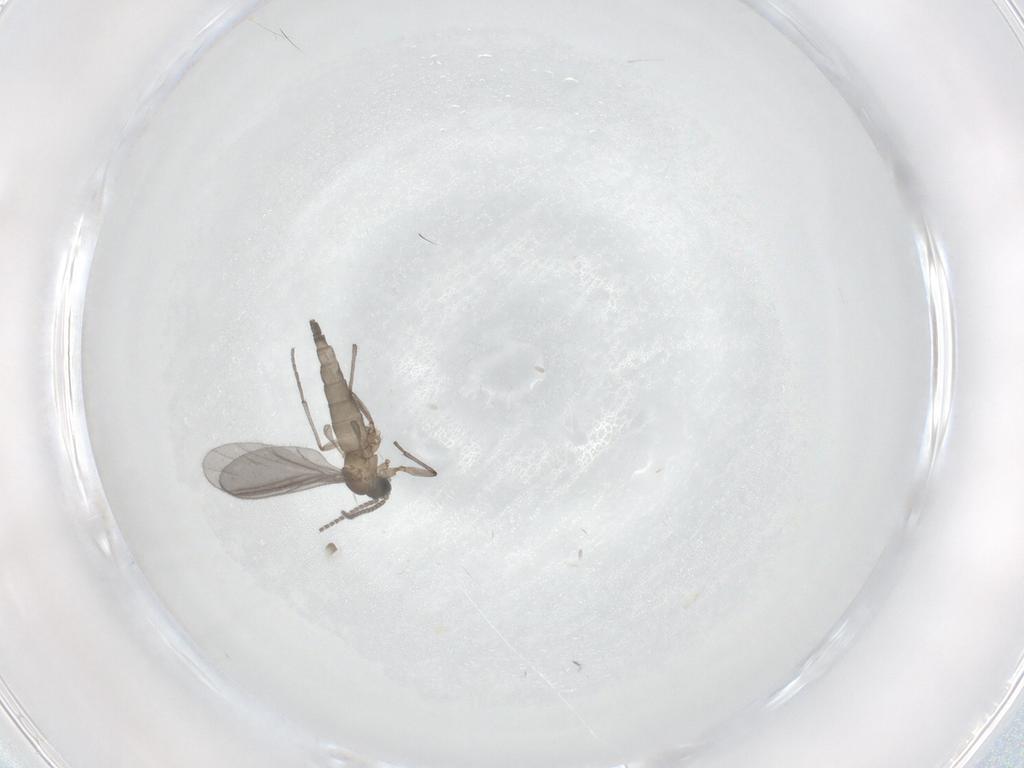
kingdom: Animalia
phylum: Arthropoda
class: Insecta
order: Diptera
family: Sciaridae
